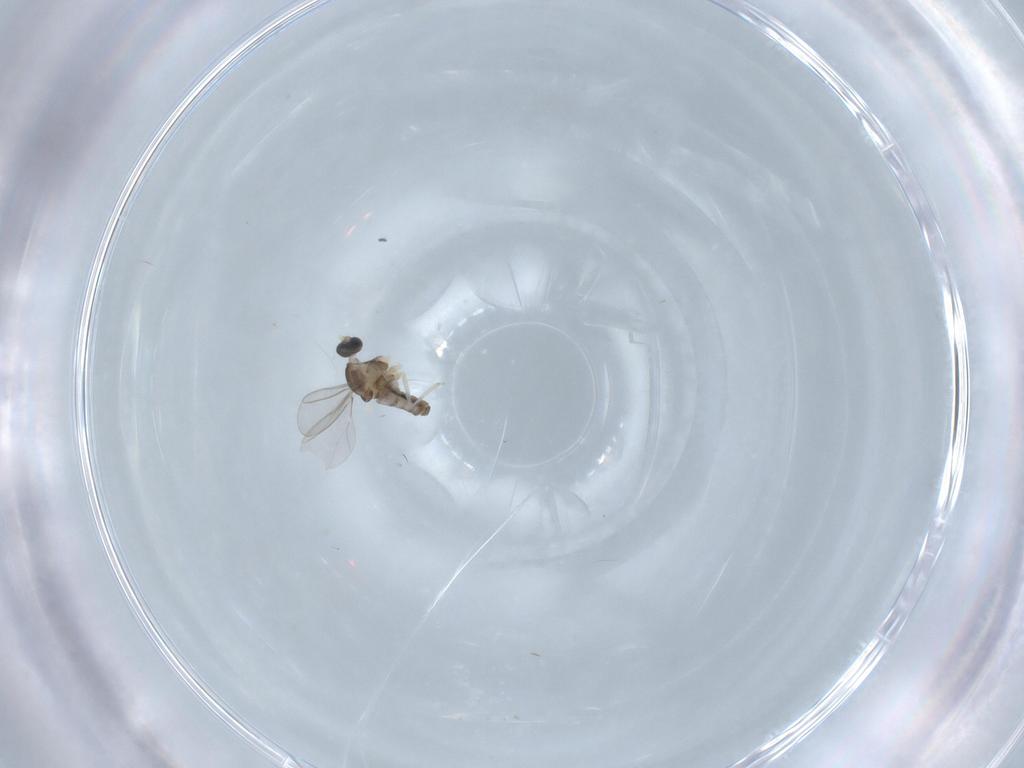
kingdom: Animalia
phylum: Arthropoda
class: Insecta
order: Diptera
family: Cecidomyiidae
